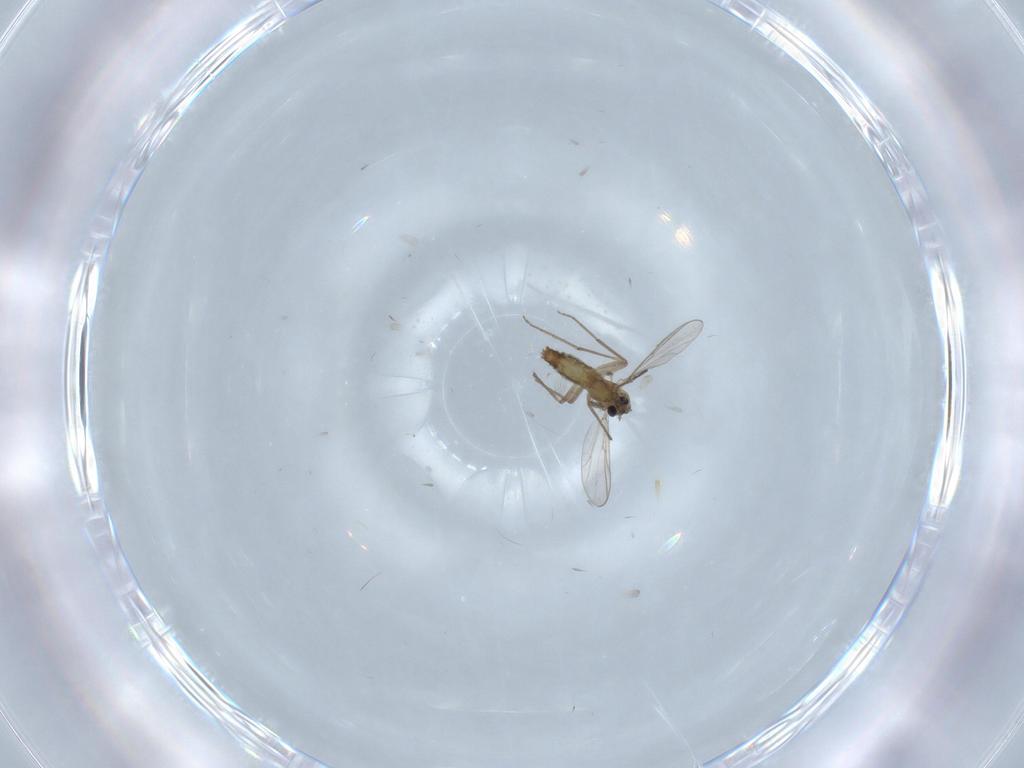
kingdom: Animalia
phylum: Arthropoda
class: Insecta
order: Diptera
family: Chironomidae
